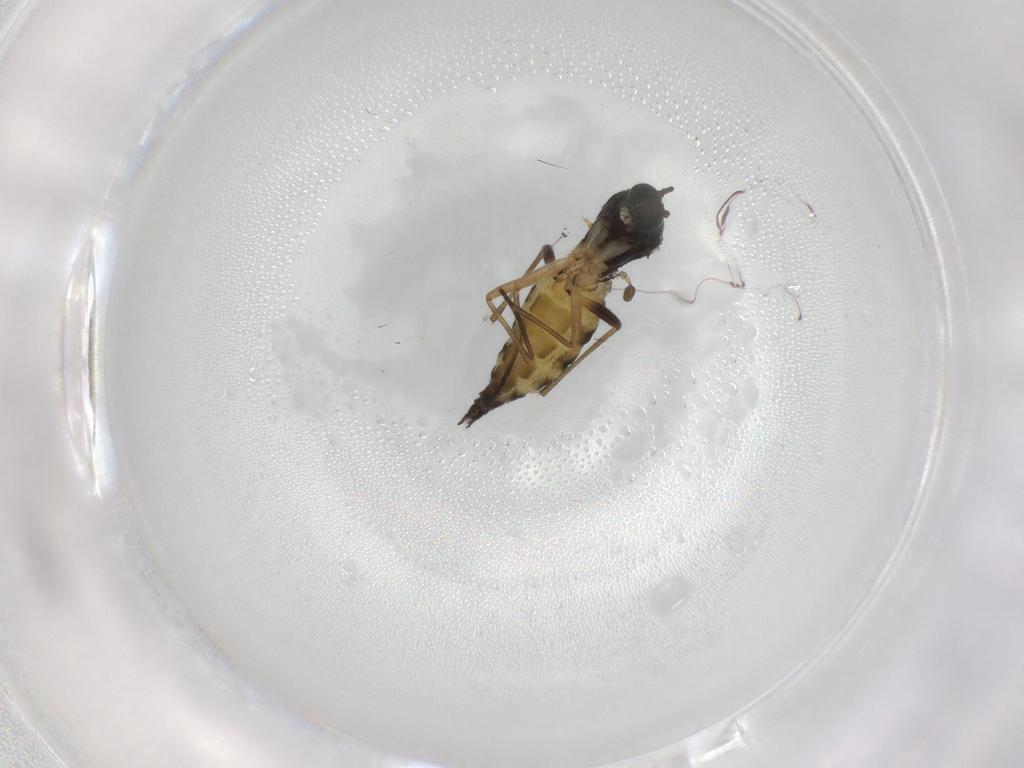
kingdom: Animalia
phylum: Arthropoda
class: Insecta
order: Diptera
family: Sciaridae
